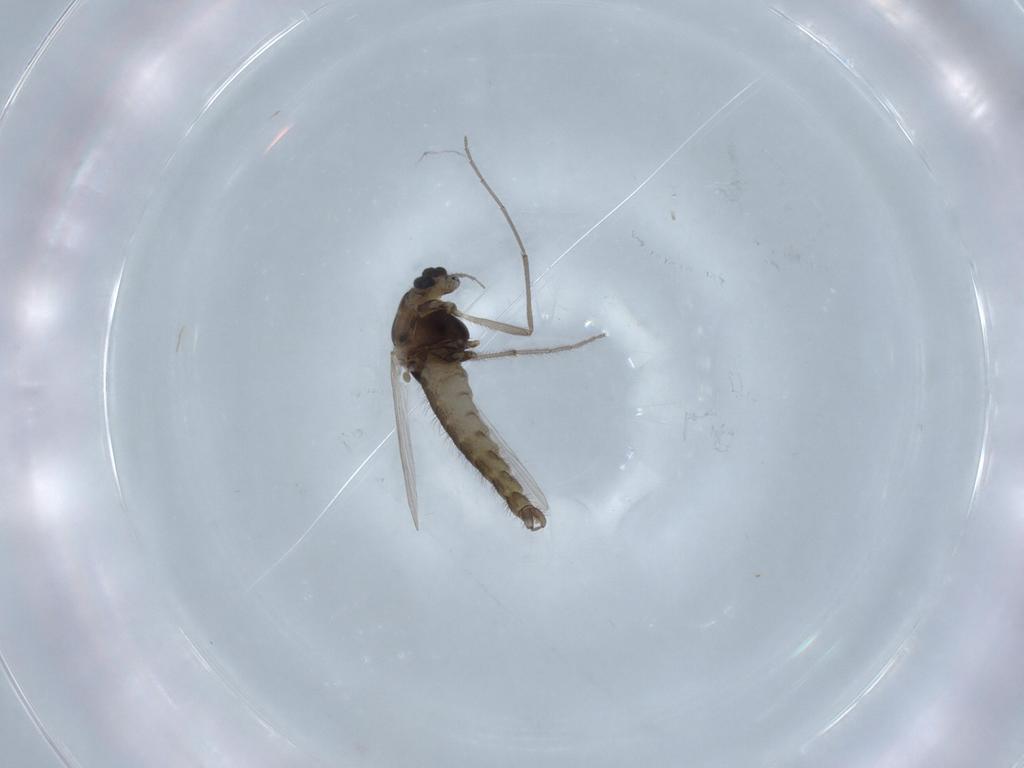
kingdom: Animalia
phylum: Arthropoda
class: Insecta
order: Diptera
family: Chironomidae
